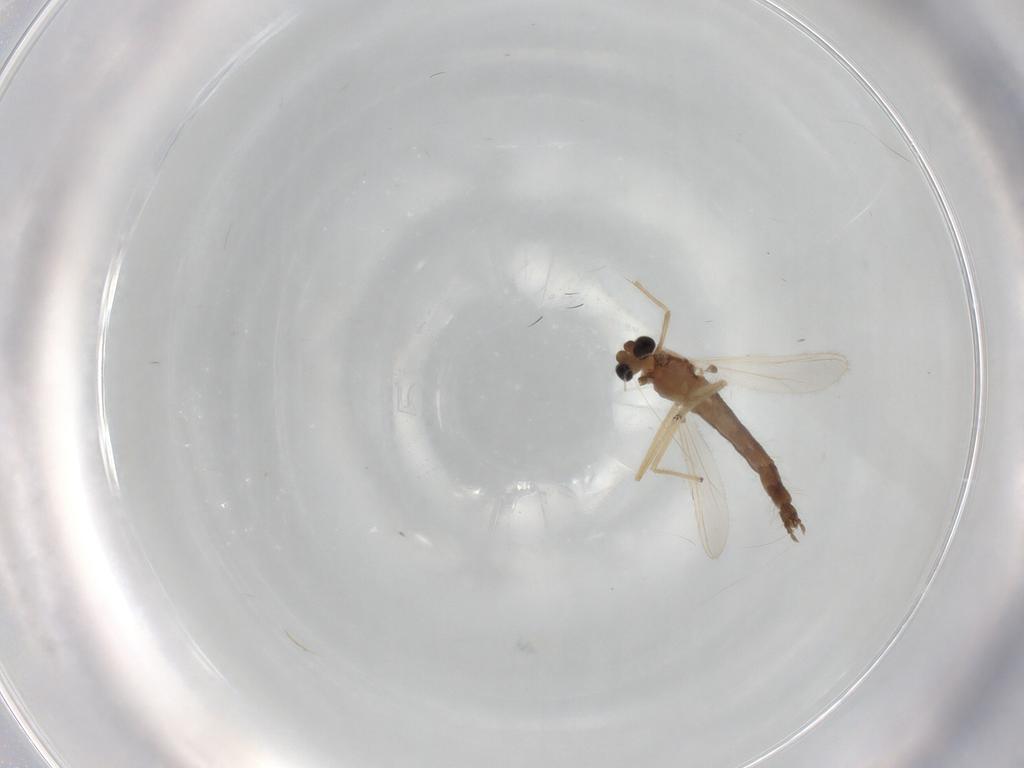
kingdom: Animalia
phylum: Arthropoda
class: Insecta
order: Diptera
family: Chironomidae
